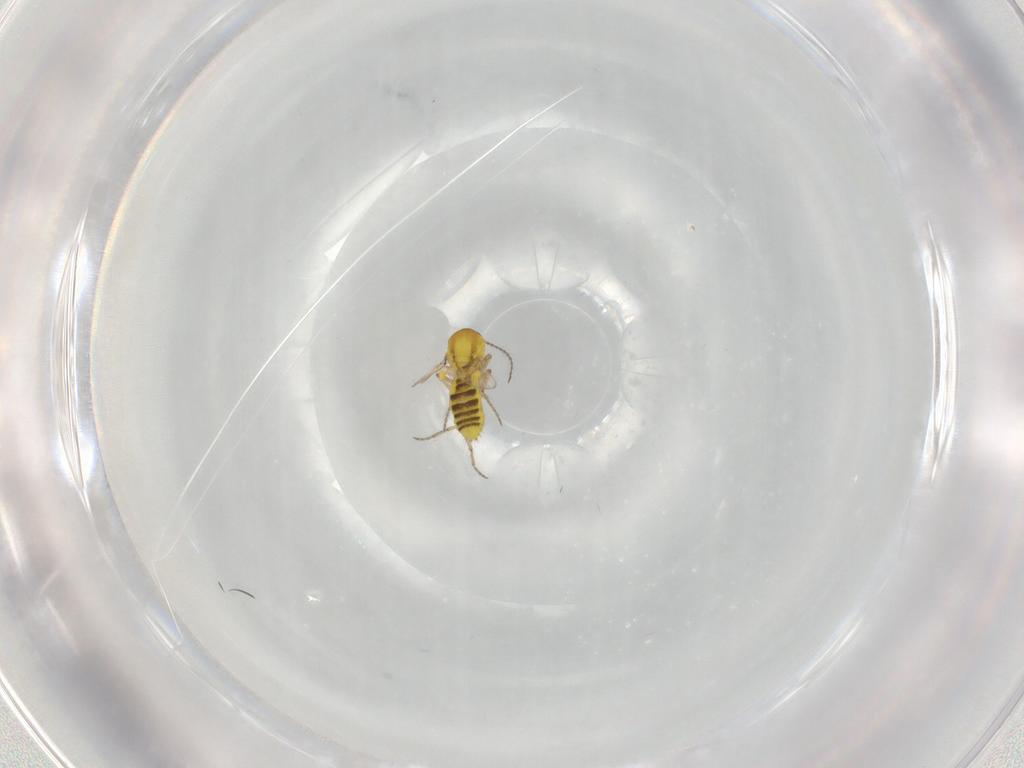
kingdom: Animalia
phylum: Arthropoda
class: Insecta
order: Diptera
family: Ceratopogonidae
